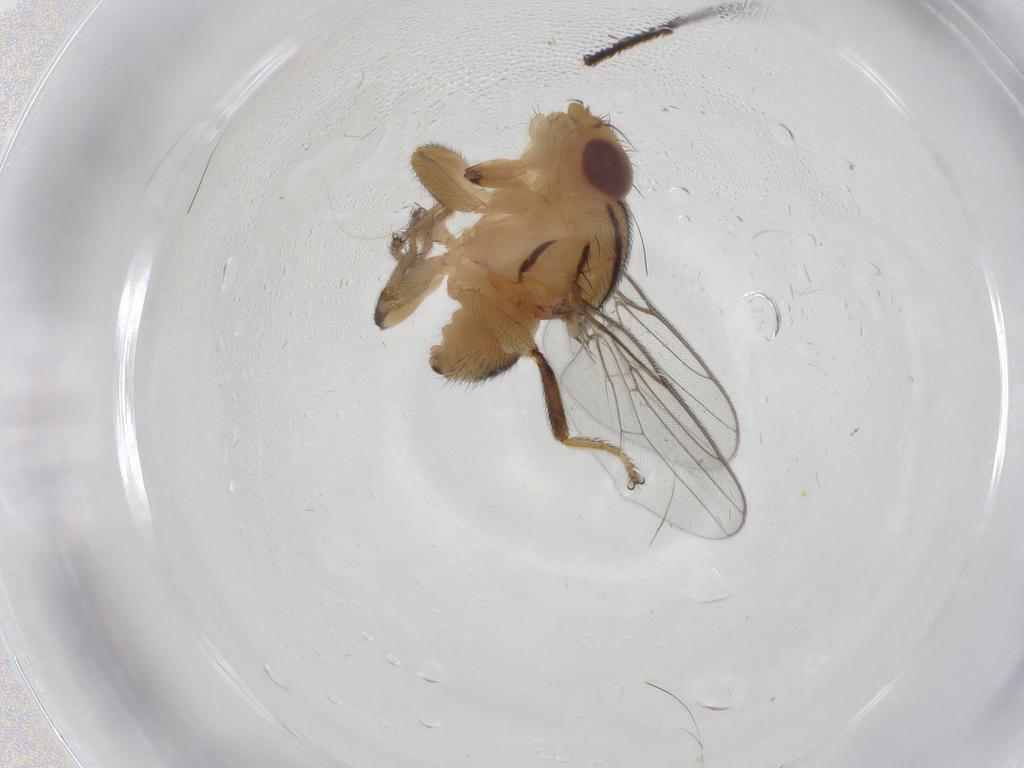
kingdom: Animalia
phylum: Arthropoda
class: Insecta
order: Diptera
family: Chloropidae
